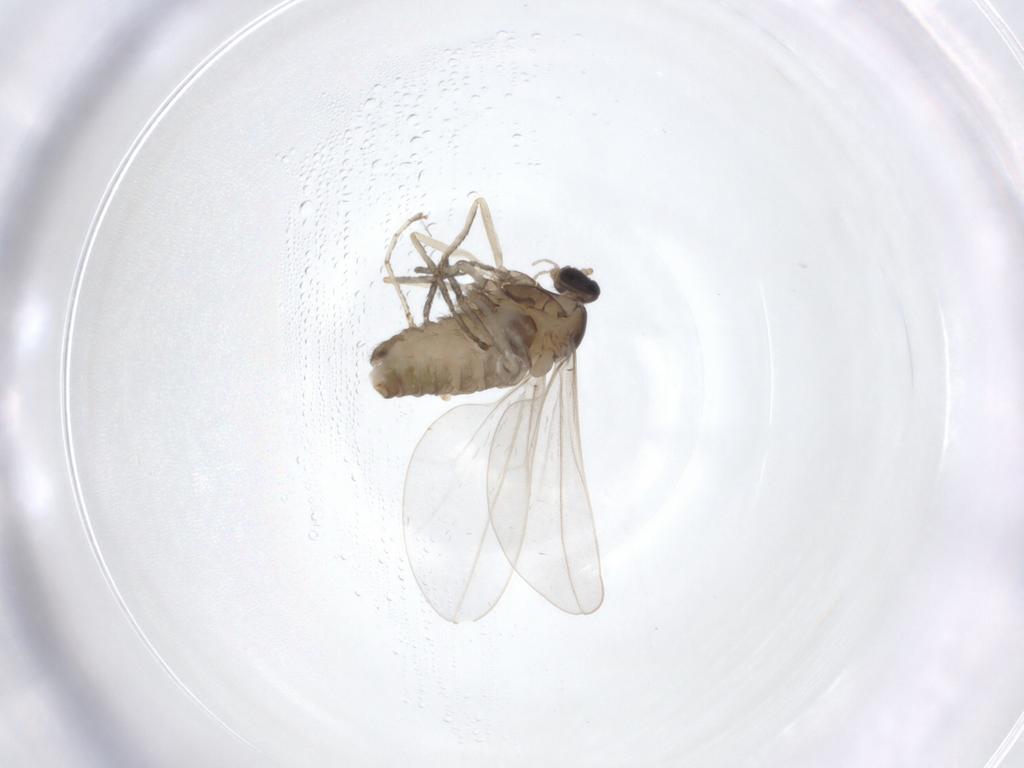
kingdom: Animalia
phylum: Arthropoda
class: Insecta
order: Diptera
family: Cecidomyiidae
